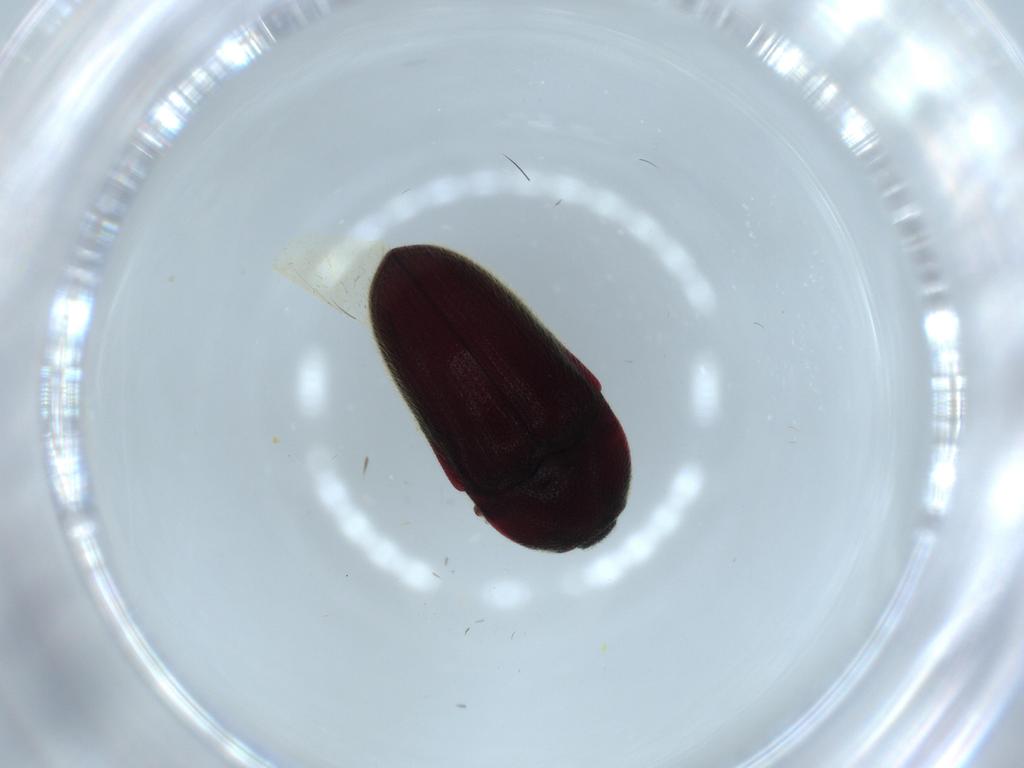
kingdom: Animalia
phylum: Arthropoda
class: Insecta
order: Coleoptera
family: Throscidae
